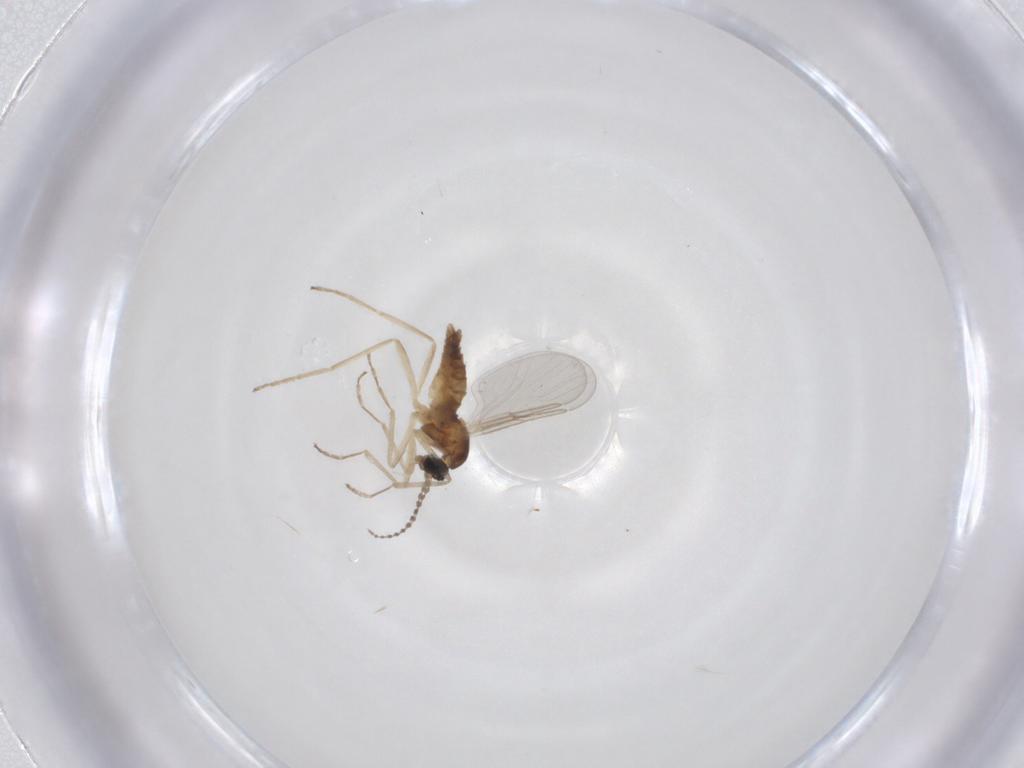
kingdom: Animalia
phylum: Arthropoda
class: Insecta
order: Diptera
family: Cecidomyiidae
